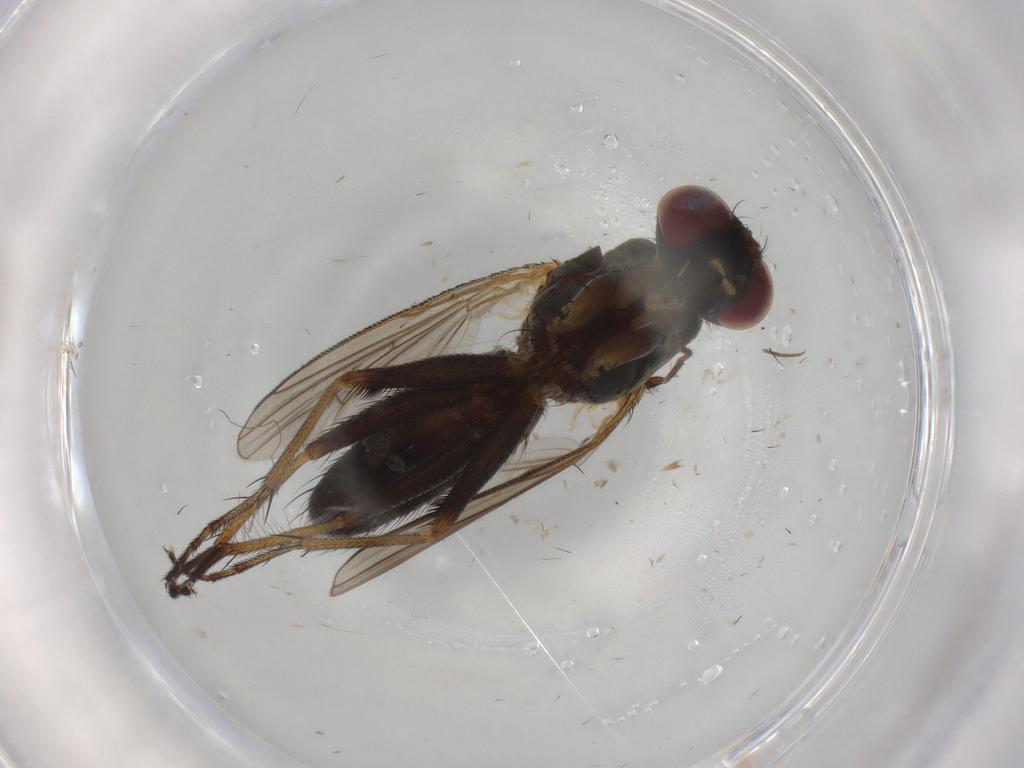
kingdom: Animalia
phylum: Arthropoda
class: Insecta
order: Diptera
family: Muscidae
